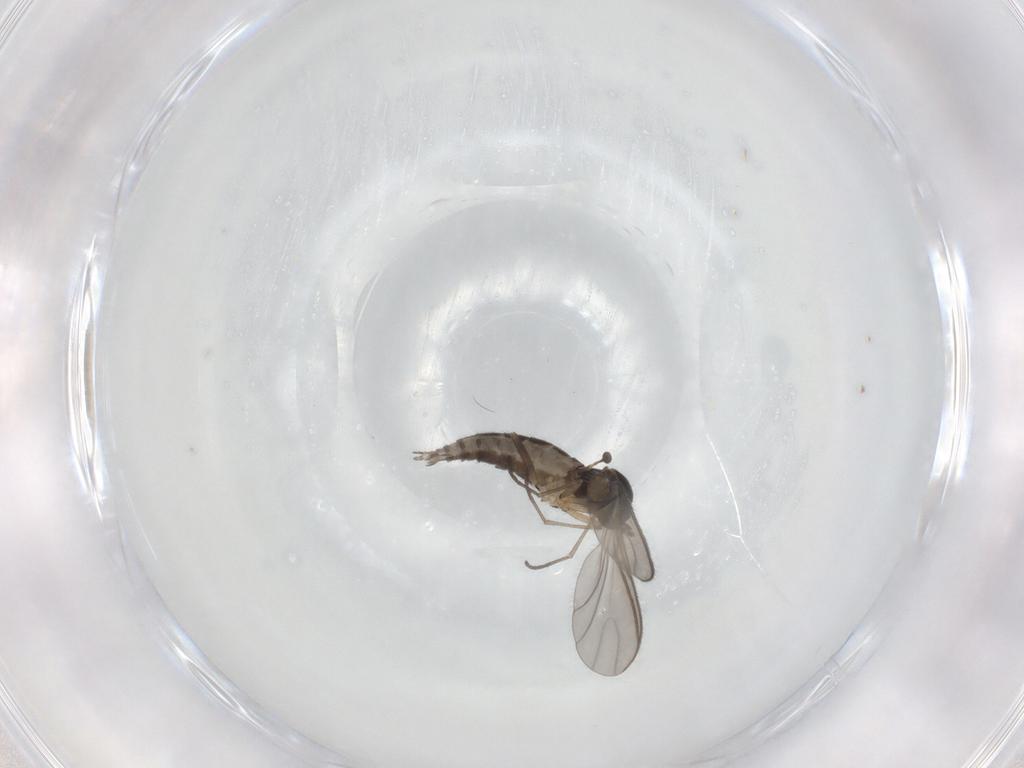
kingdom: Animalia
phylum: Arthropoda
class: Insecta
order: Diptera
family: Sciaridae
